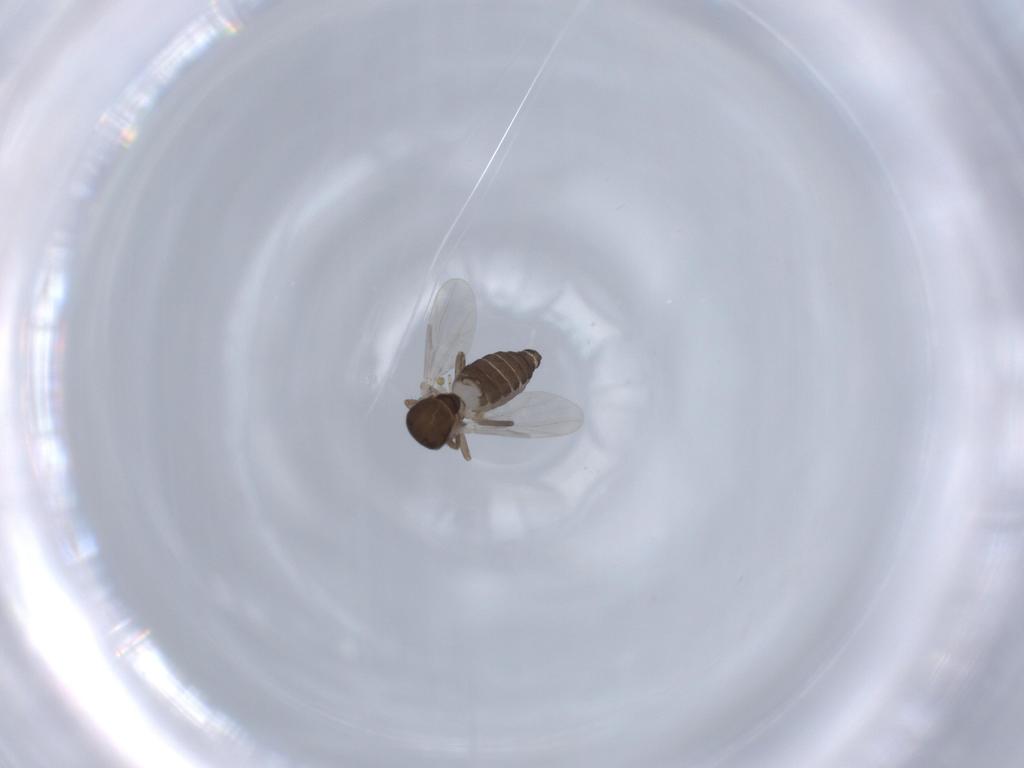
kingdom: Animalia
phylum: Arthropoda
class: Insecta
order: Diptera
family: Ceratopogonidae
